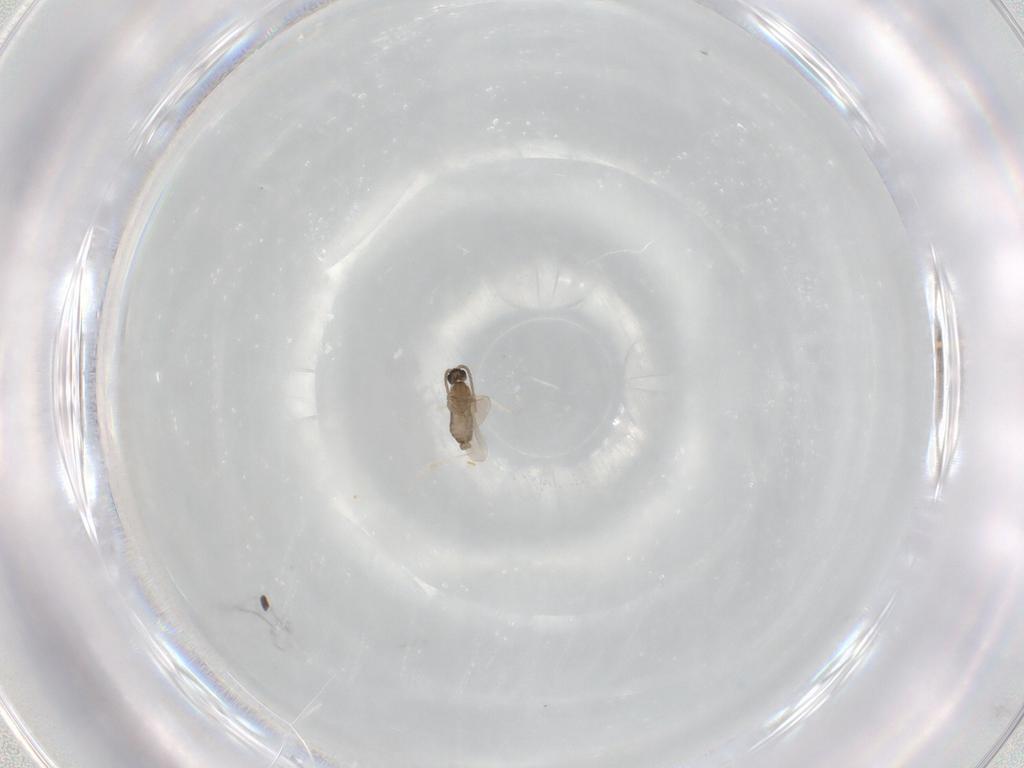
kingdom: Animalia
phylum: Arthropoda
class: Insecta
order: Diptera
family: Cecidomyiidae
